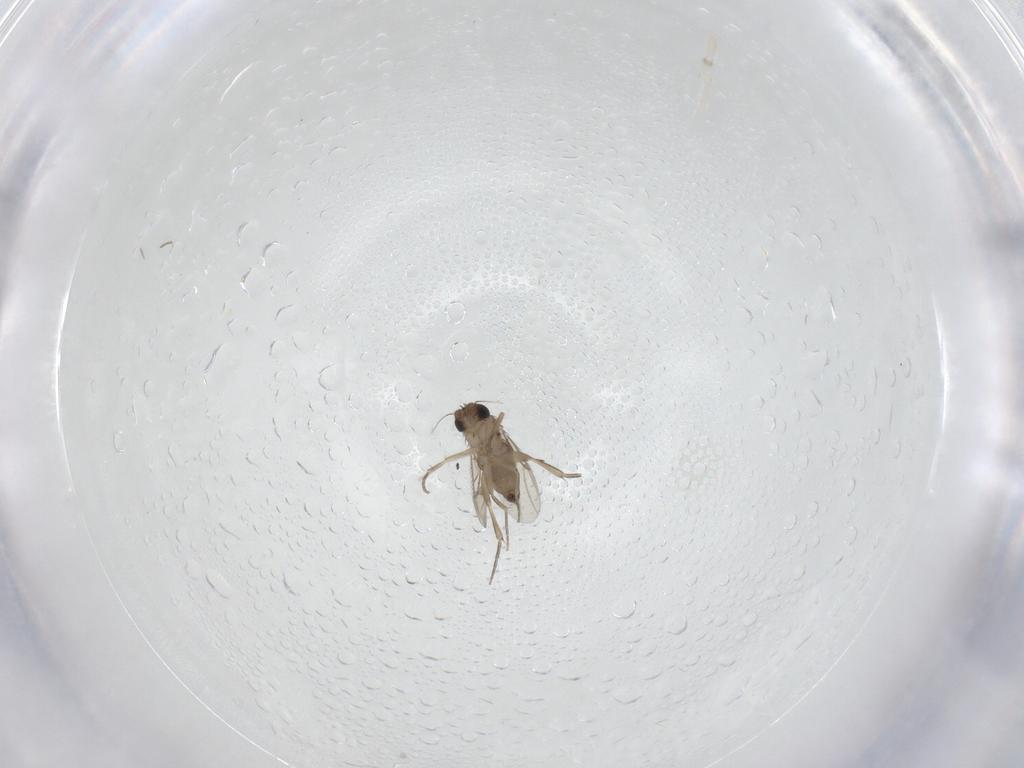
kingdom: Animalia
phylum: Arthropoda
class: Insecta
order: Diptera
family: Phoridae
